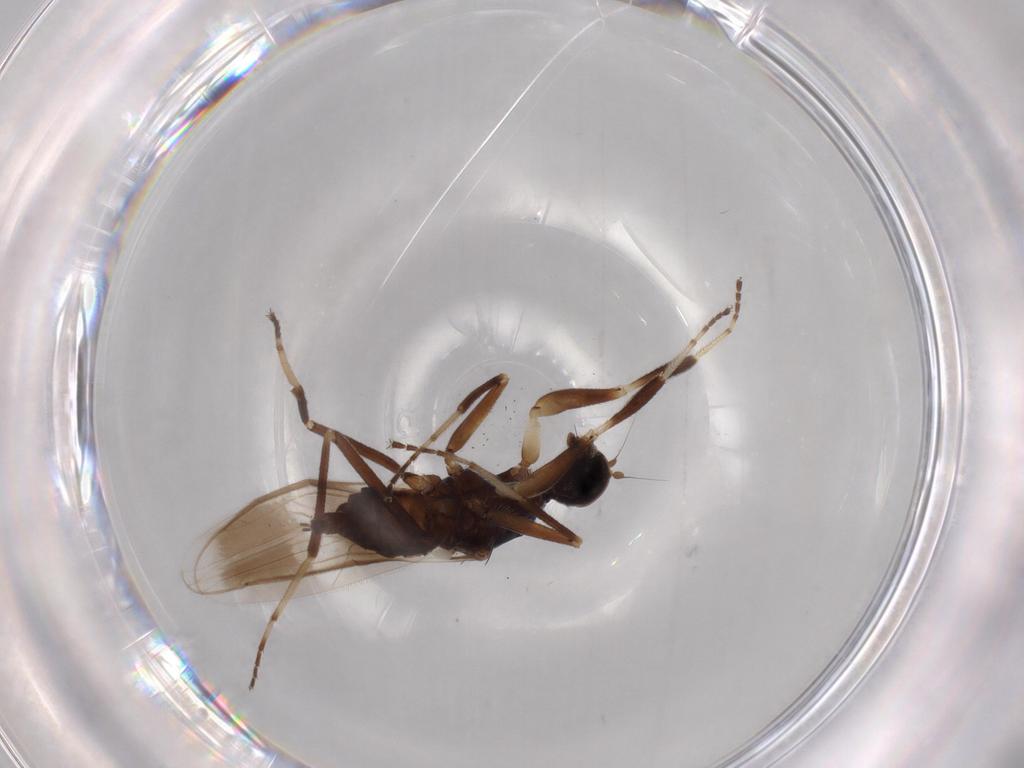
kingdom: Animalia
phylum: Arthropoda
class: Insecta
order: Diptera
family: Hybotidae
